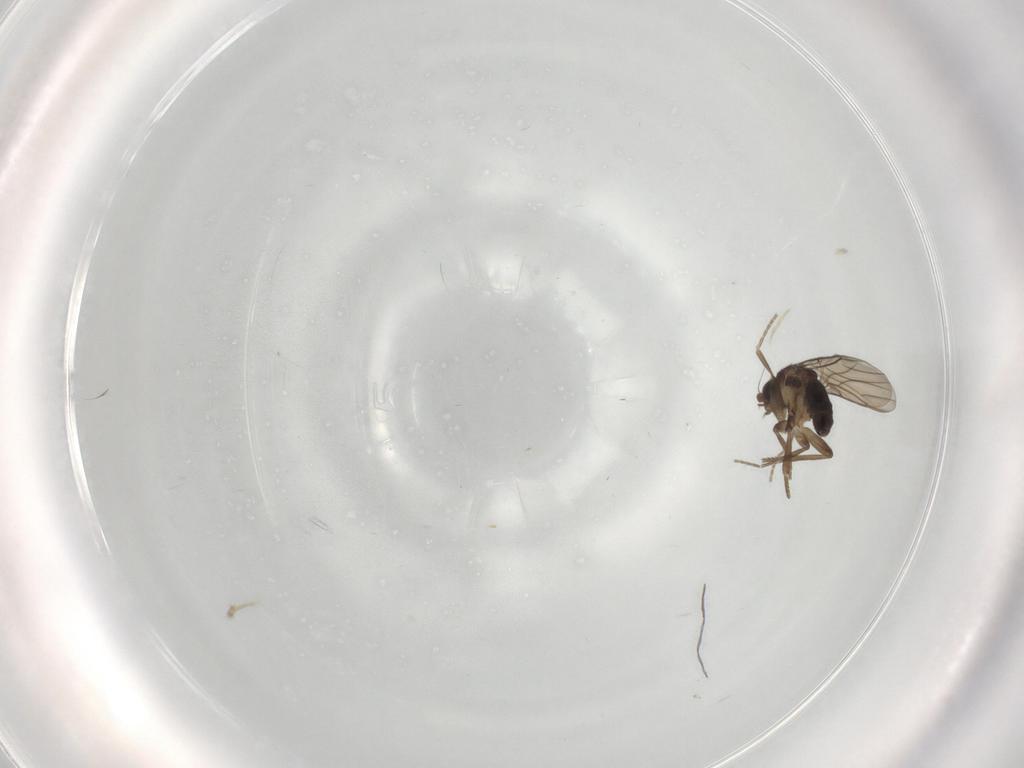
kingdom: Animalia
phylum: Arthropoda
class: Insecta
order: Diptera
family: Phoridae
